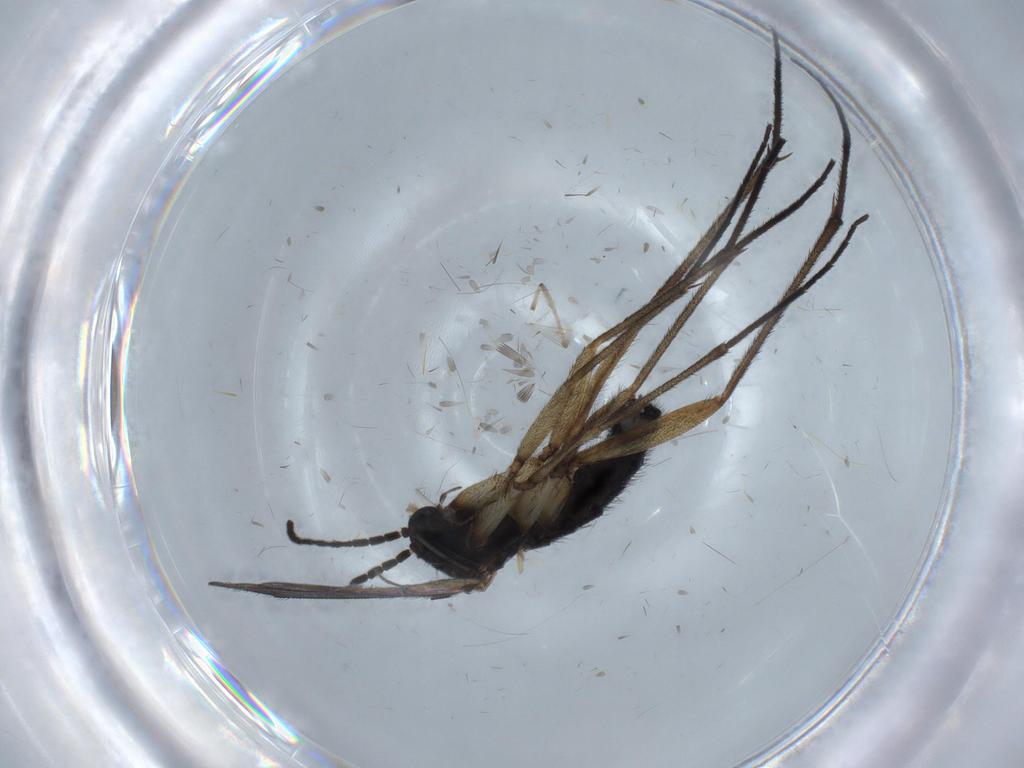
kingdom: Animalia
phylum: Arthropoda
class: Insecta
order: Diptera
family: Sciaridae
